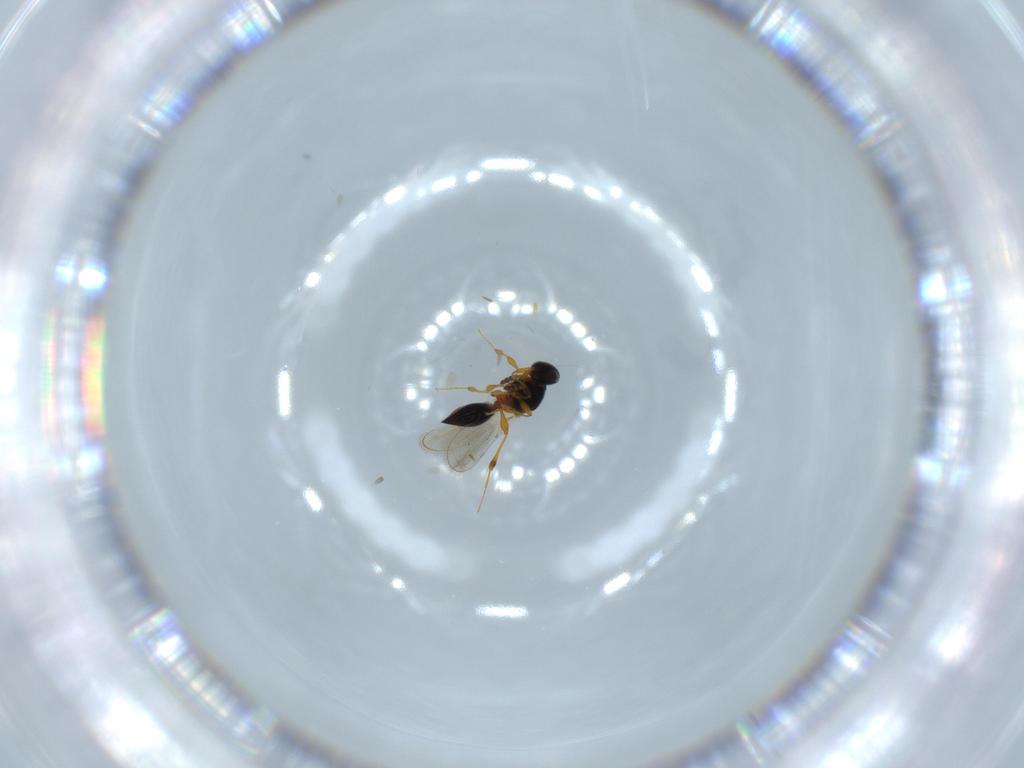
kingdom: Animalia
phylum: Arthropoda
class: Insecta
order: Hymenoptera
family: Platygastridae
